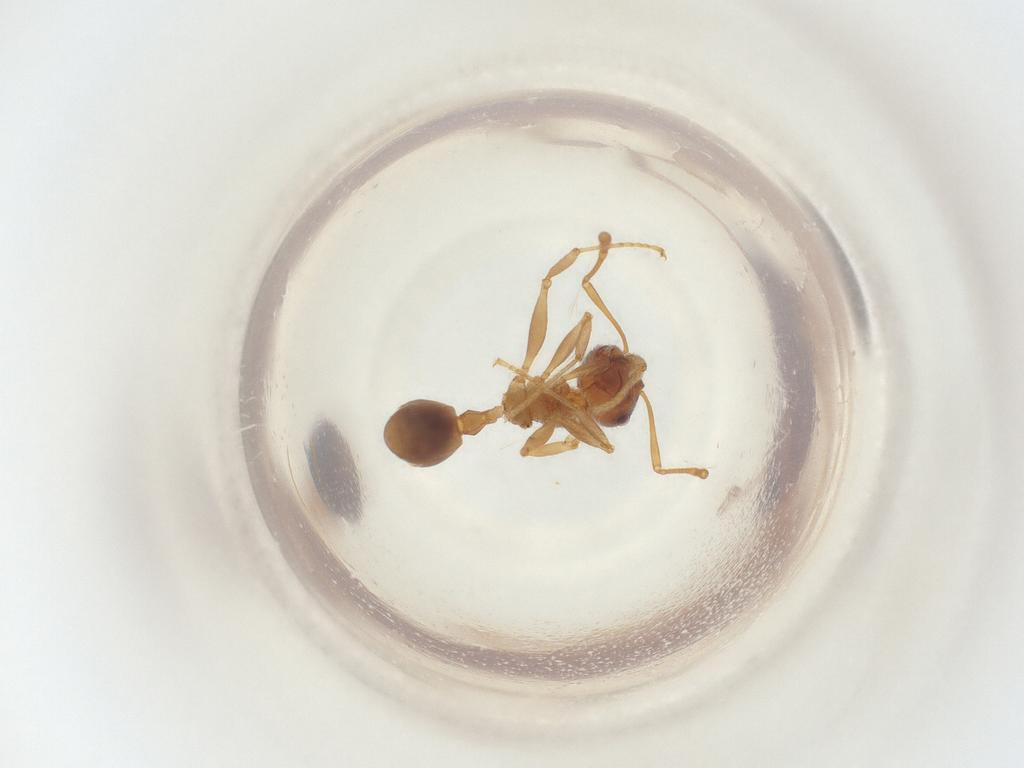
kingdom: Animalia
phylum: Arthropoda
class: Insecta
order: Hymenoptera
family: Formicidae
